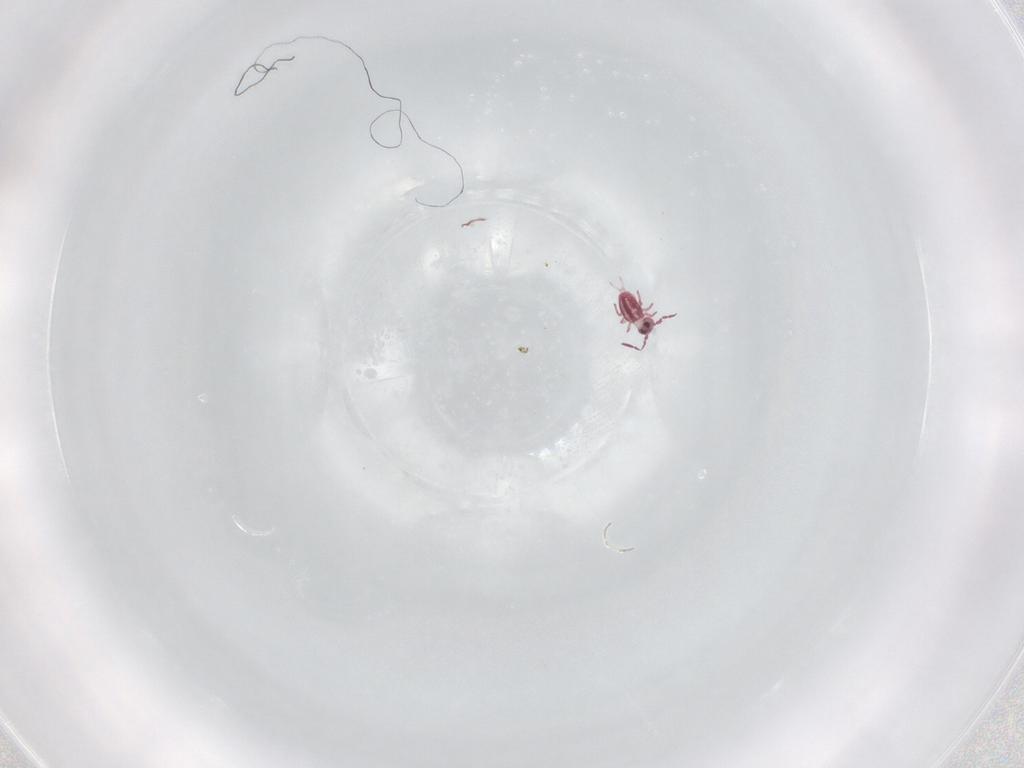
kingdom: Animalia
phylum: Arthropoda
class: Collembola
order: Symphypleona
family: Sminthurididae
